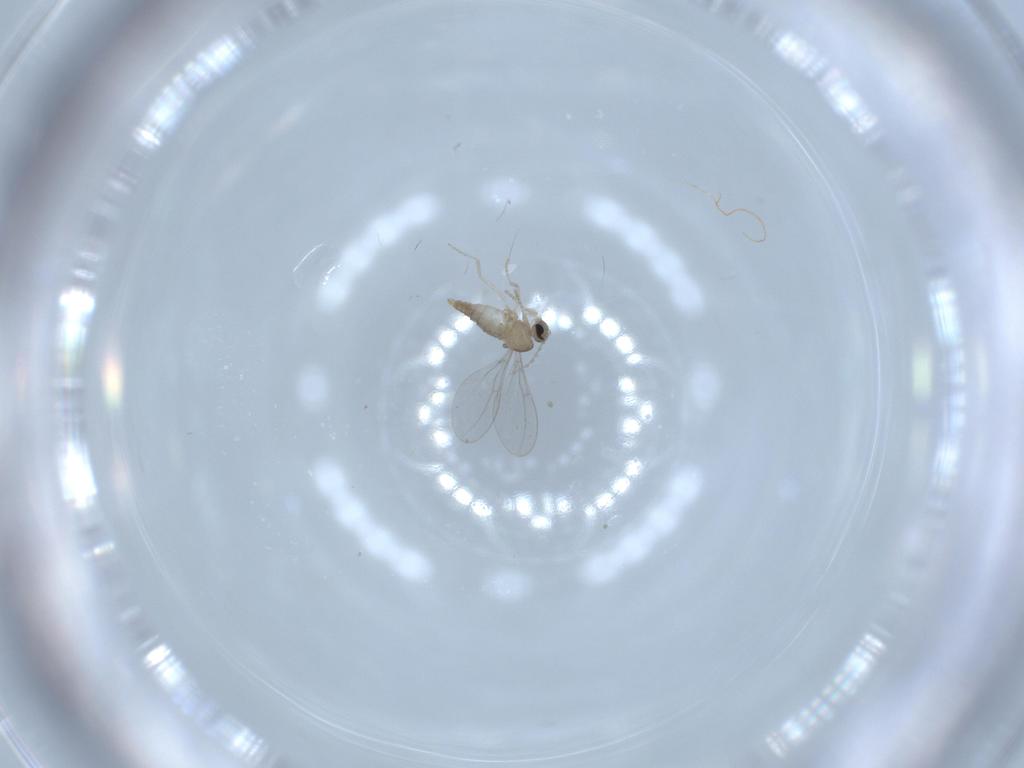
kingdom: Animalia
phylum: Arthropoda
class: Insecta
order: Diptera
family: Cecidomyiidae
